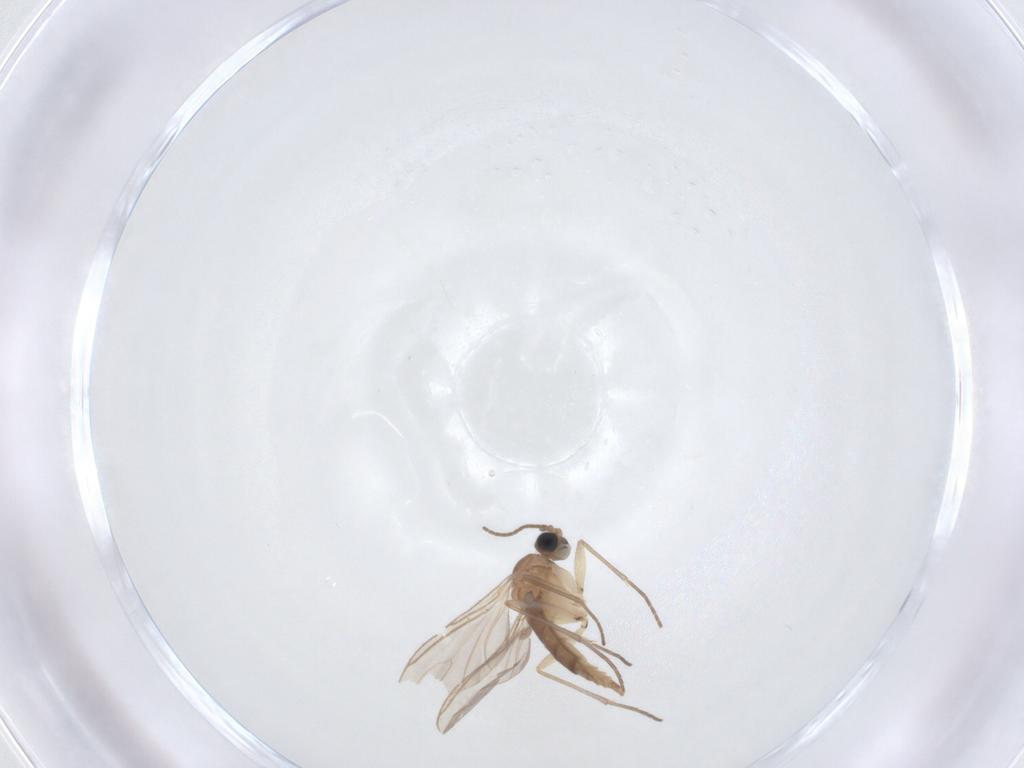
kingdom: Animalia
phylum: Arthropoda
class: Insecta
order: Diptera
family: Sciaridae
